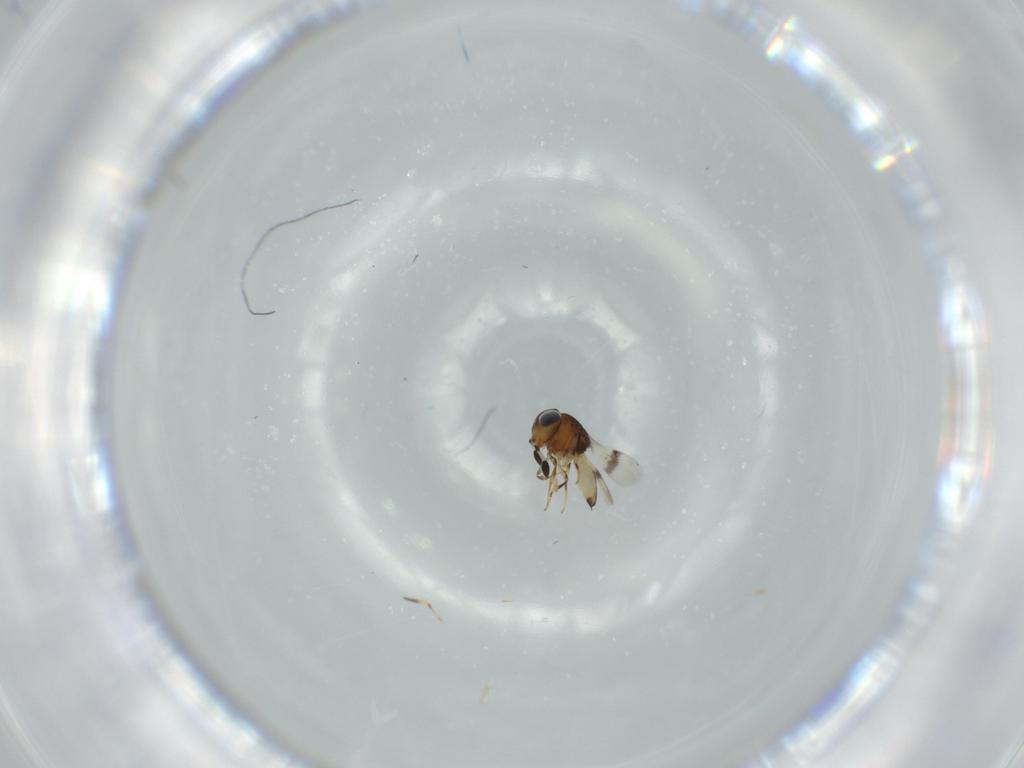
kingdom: Animalia
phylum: Arthropoda
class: Arachnida
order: Araneae
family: Pholcidae
